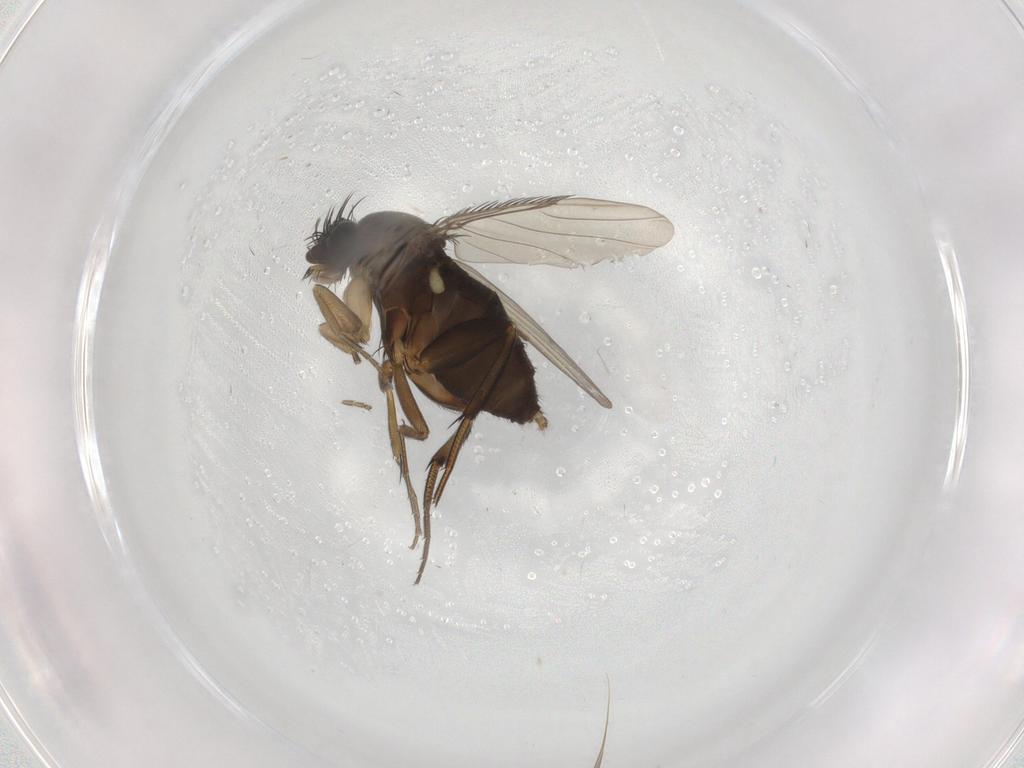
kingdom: Animalia
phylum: Arthropoda
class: Insecta
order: Diptera
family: Phoridae
